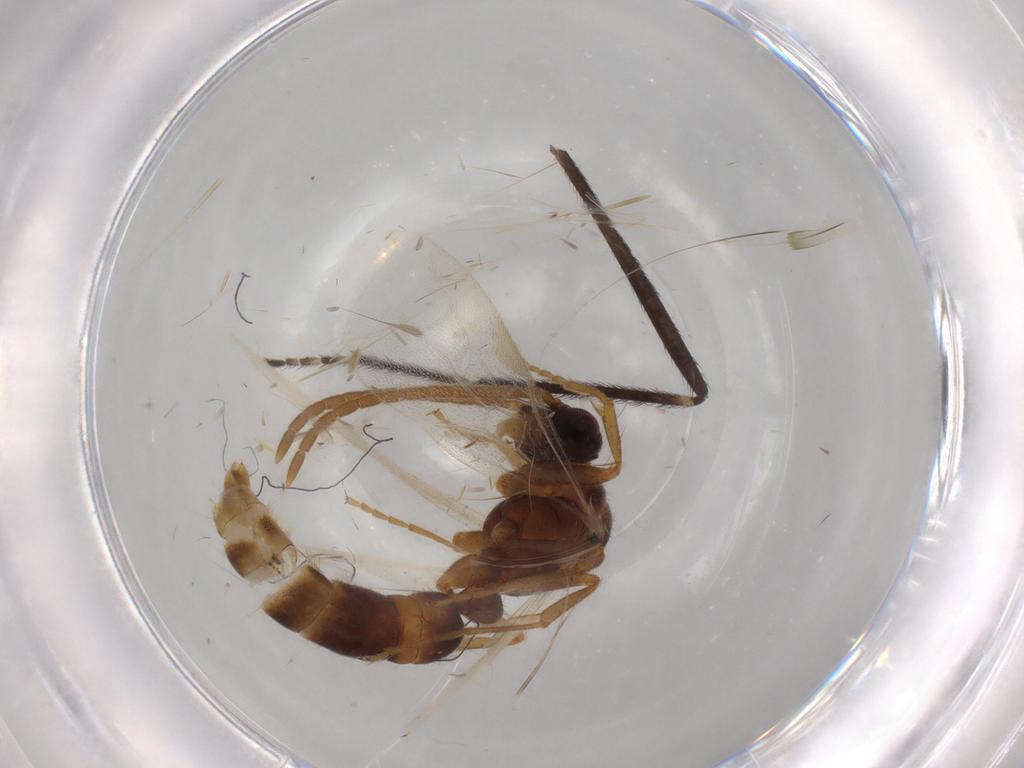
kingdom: Animalia
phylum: Arthropoda
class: Insecta
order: Hymenoptera
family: Formicidae
